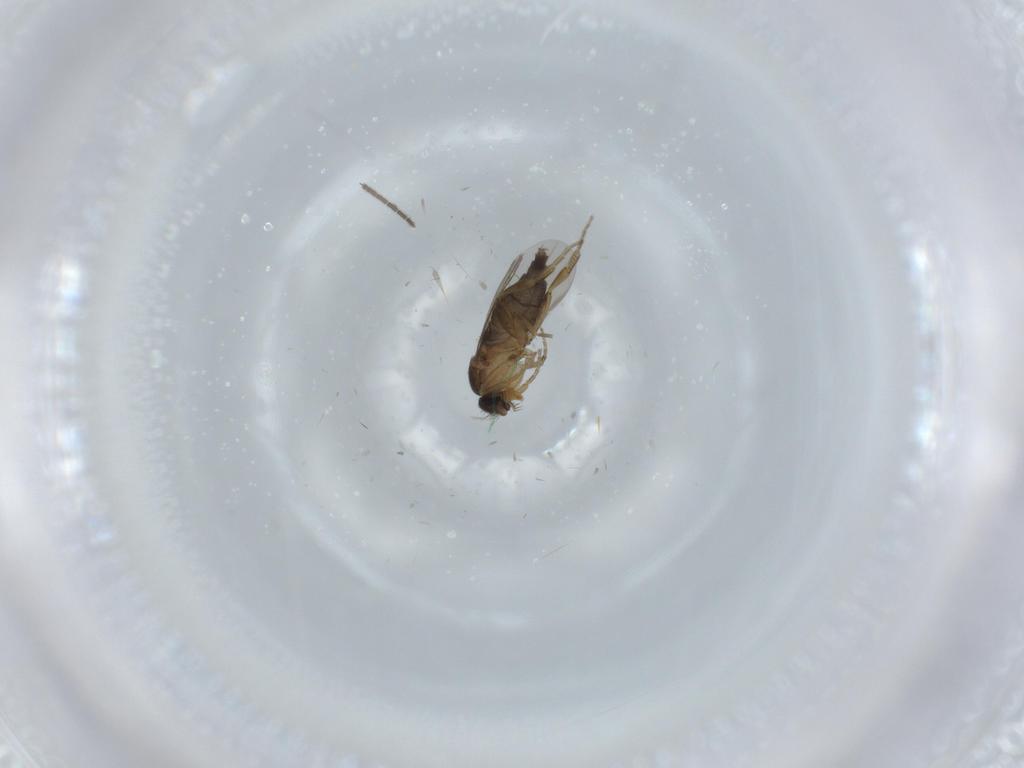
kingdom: Animalia
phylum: Arthropoda
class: Insecta
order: Diptera
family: Phoridae
